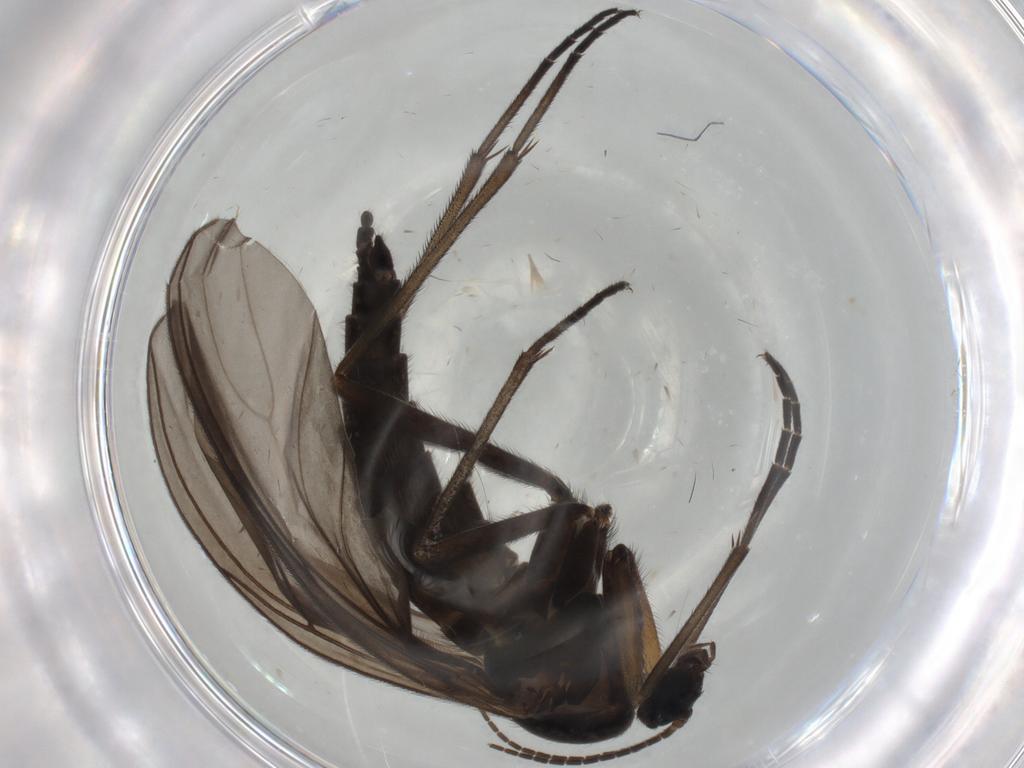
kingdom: Animalia
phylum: Arthropoda
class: Insecta
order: Diptera
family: Sciaridae
